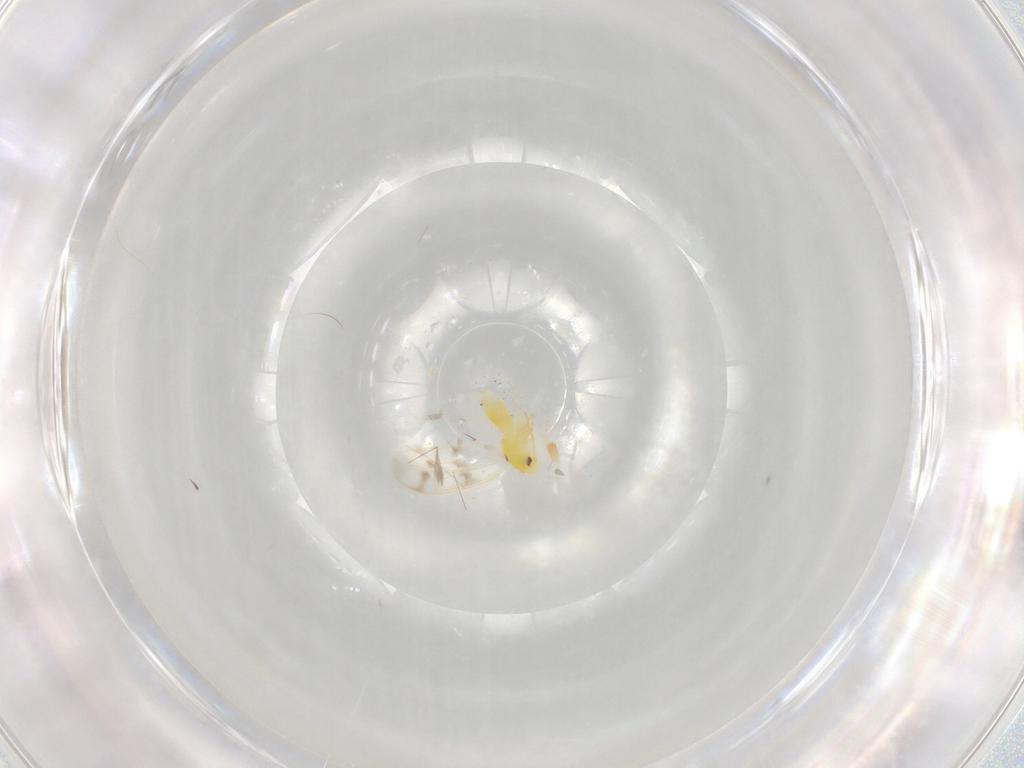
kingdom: Animalia
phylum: Arthropoda
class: Insecta
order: Hemiptera
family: Aleyrodidae
